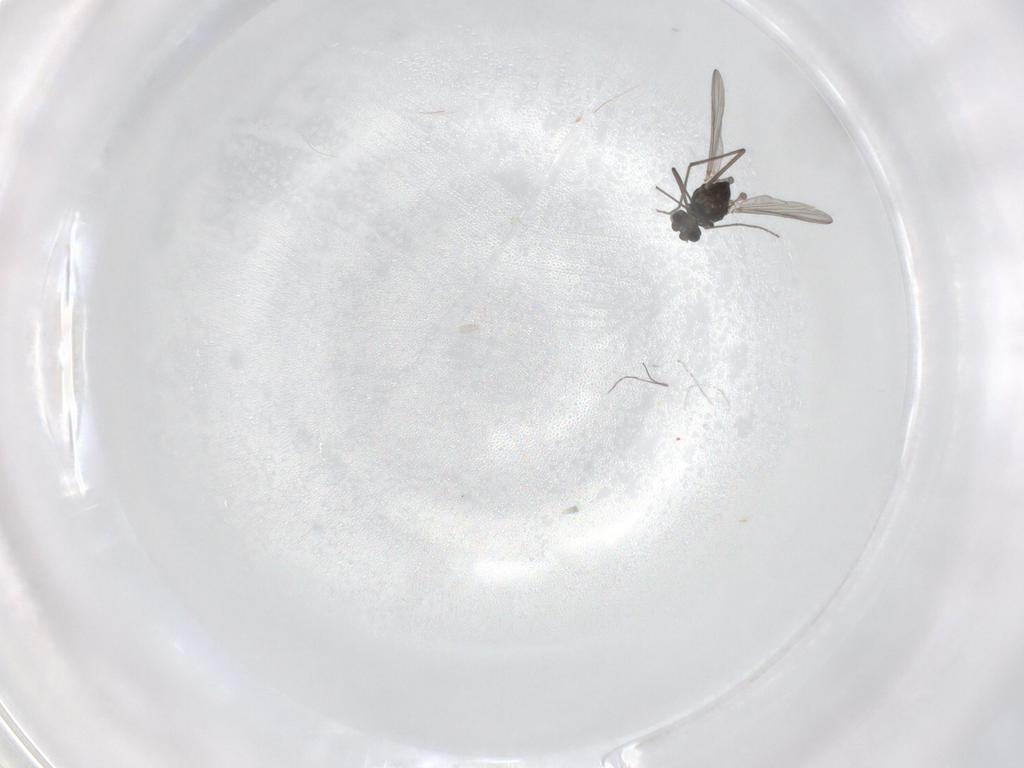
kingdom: Animalia
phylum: Arthropoda
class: Insecta
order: Diptera
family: Chironomidae
